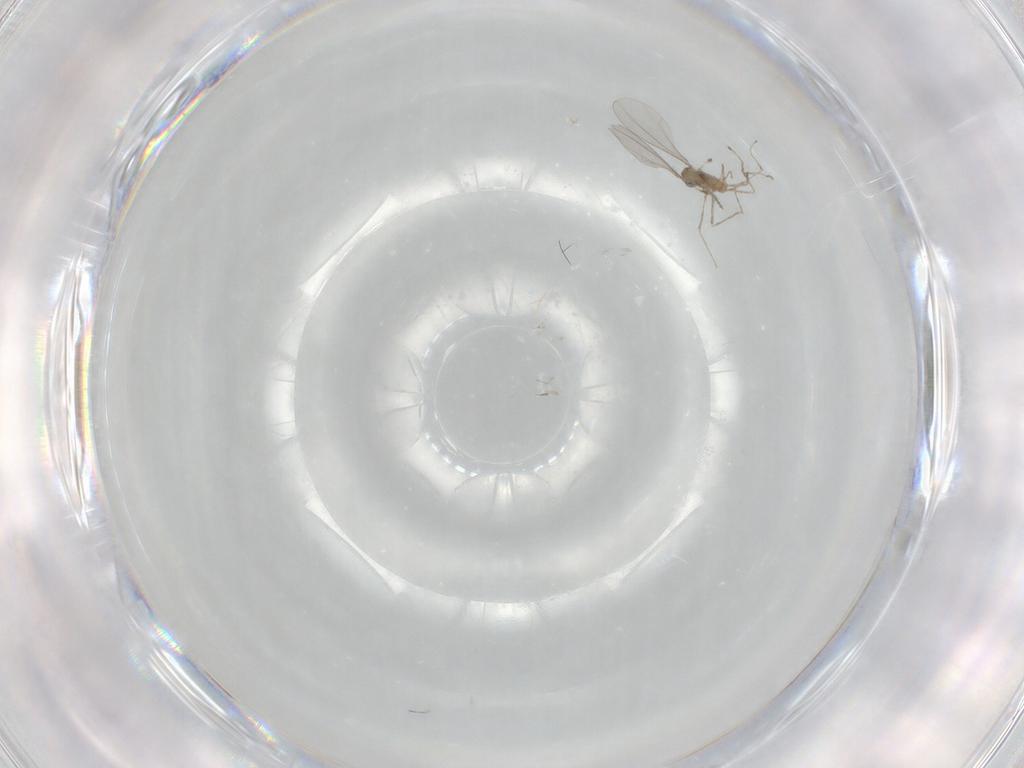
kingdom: Animalia
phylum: Arthropoda
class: Insecta
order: Diptera
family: Cecidomyiidae
